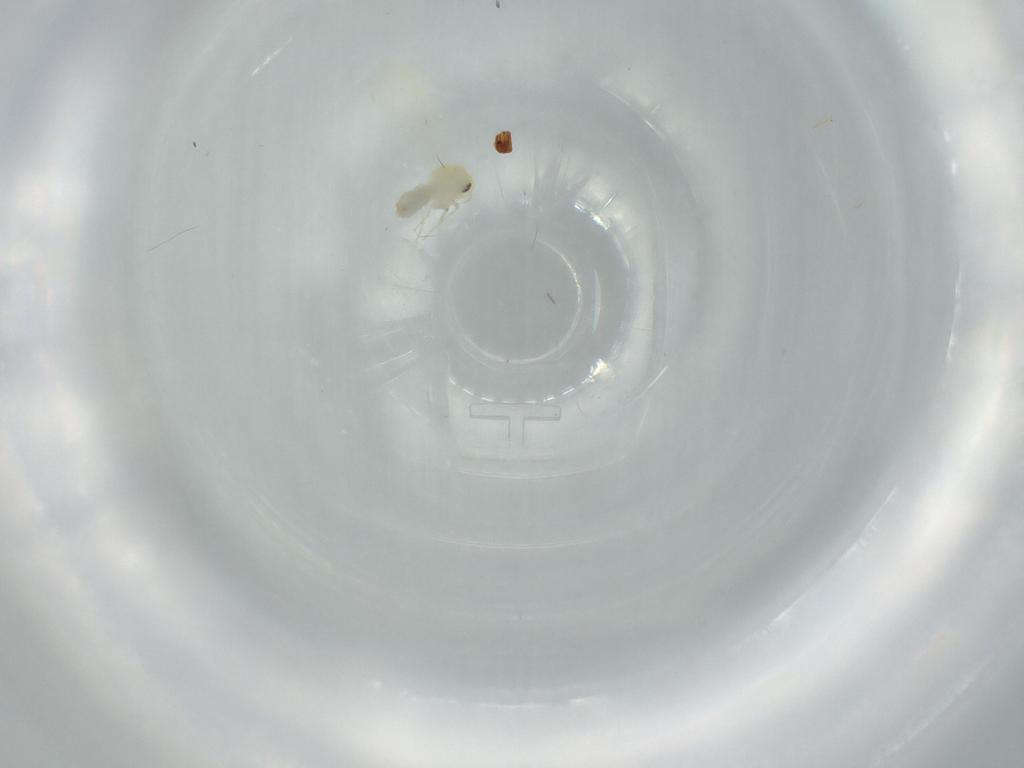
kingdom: Animalia
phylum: Arthropoda
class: Insecta
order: Hemiptera
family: Aleyrodidae
